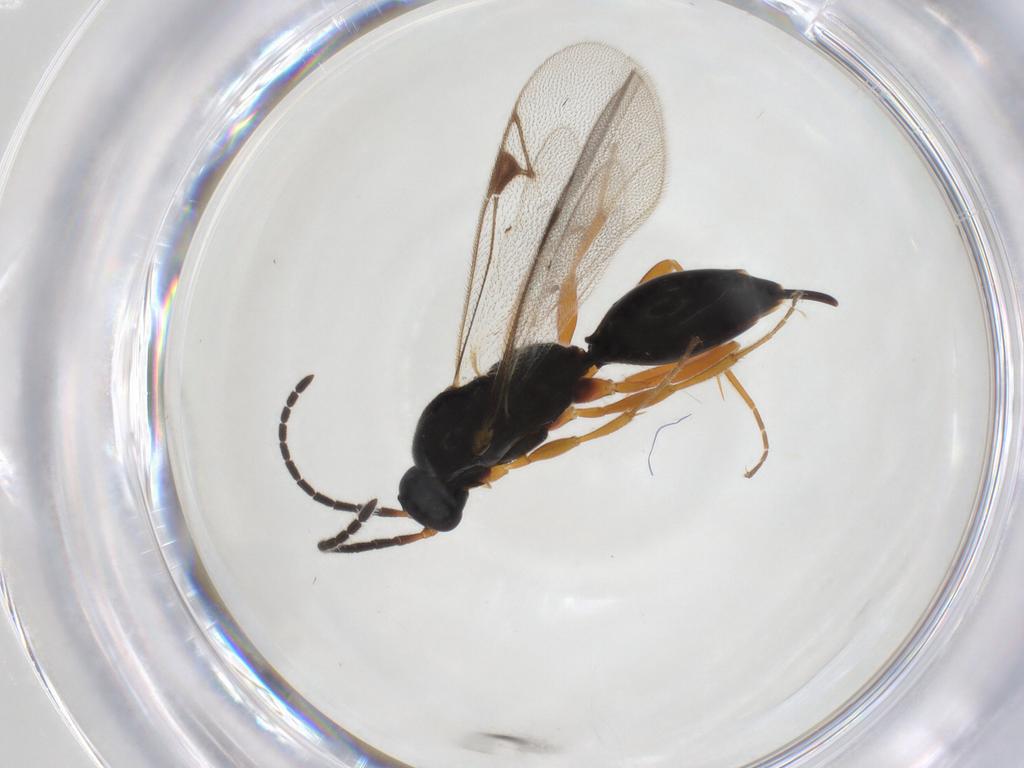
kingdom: Animalia
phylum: Arthropoda
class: Insecta
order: Hymenoptera
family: Proctotrupidae
